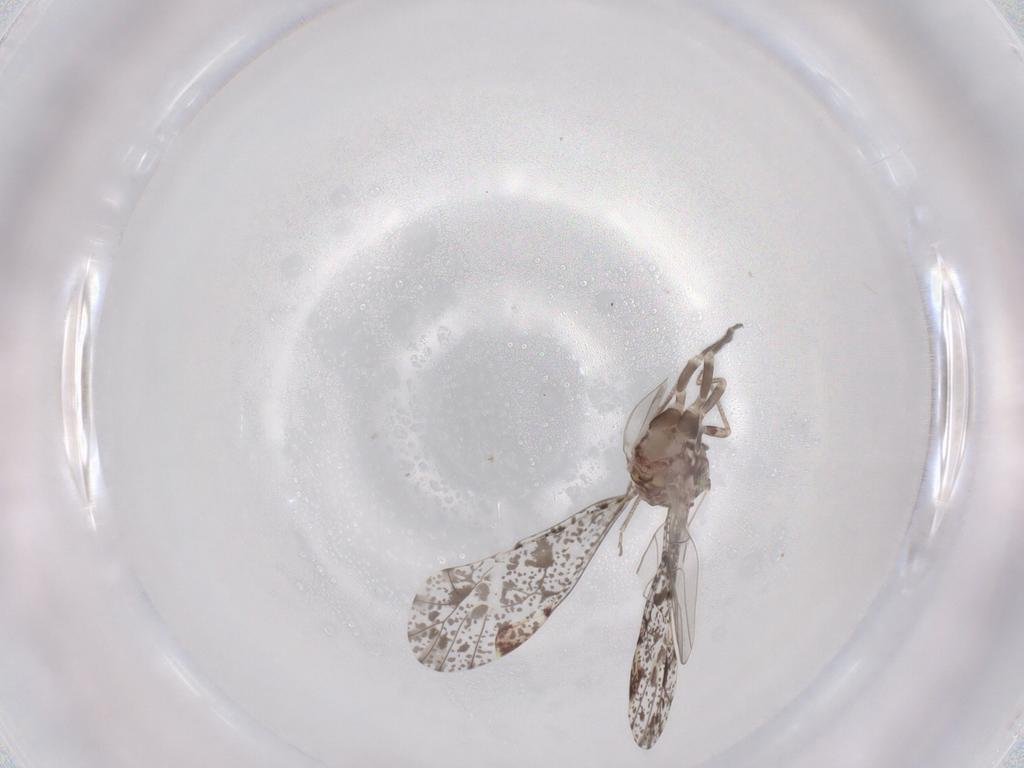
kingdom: Animalia
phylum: Arthropoda
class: Insecta
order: Psocodea
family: Psocidae
